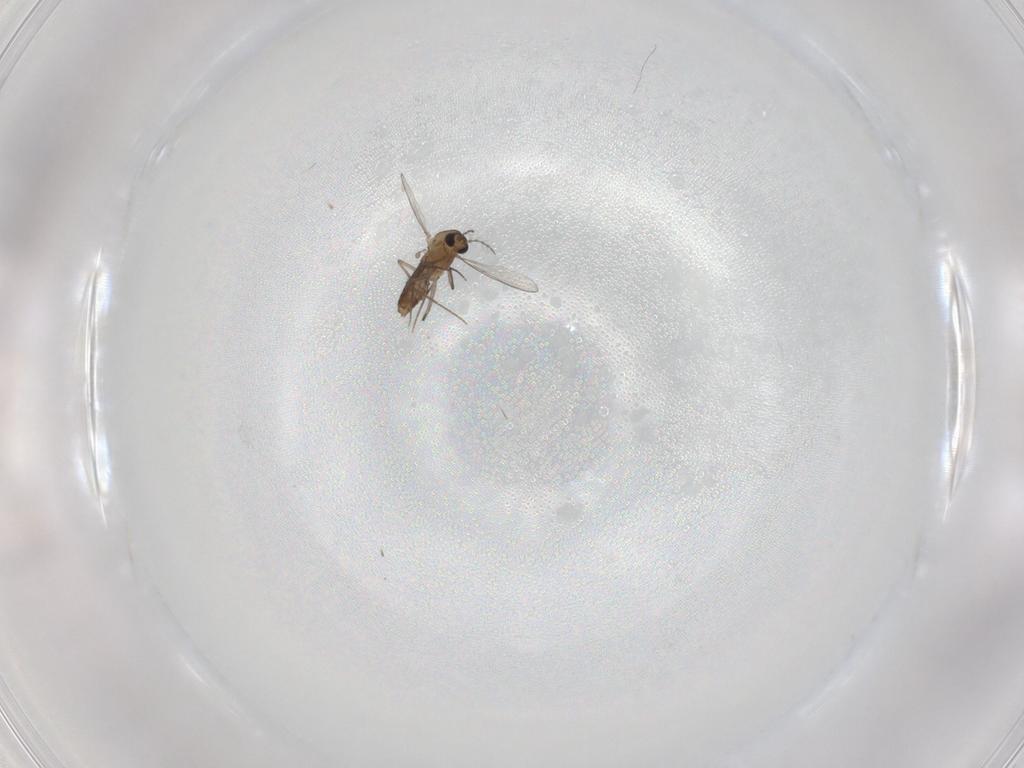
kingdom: Animalia
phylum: Arthropoda
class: Insecta
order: Diptera
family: Chironomidae
